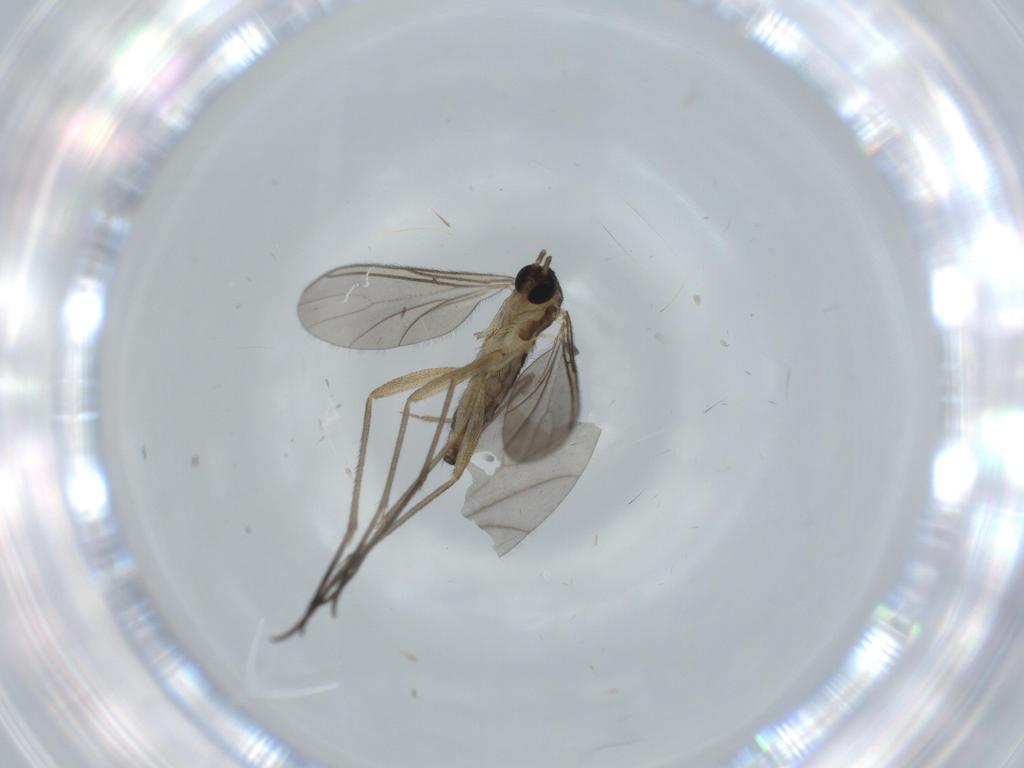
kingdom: Animalia
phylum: Arthropoda
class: Insecta
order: Diptera
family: Cecidomyiidae
